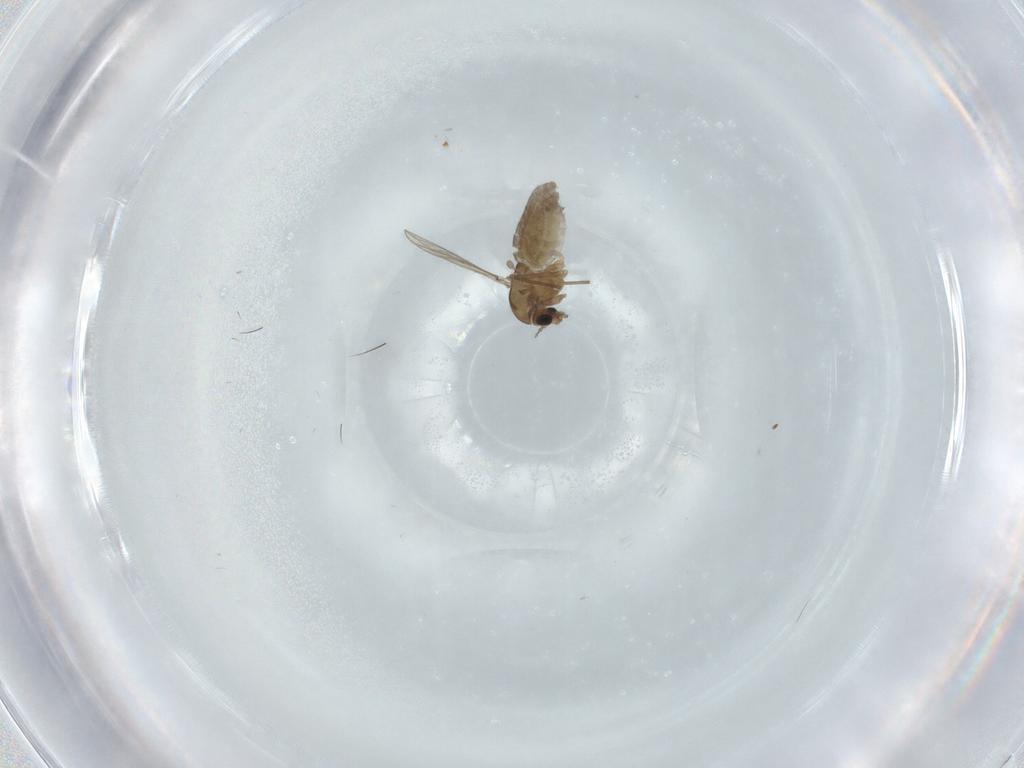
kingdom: Animalia
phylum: Arthropoda
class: Insecta
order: Diptera
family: Chironomidae
